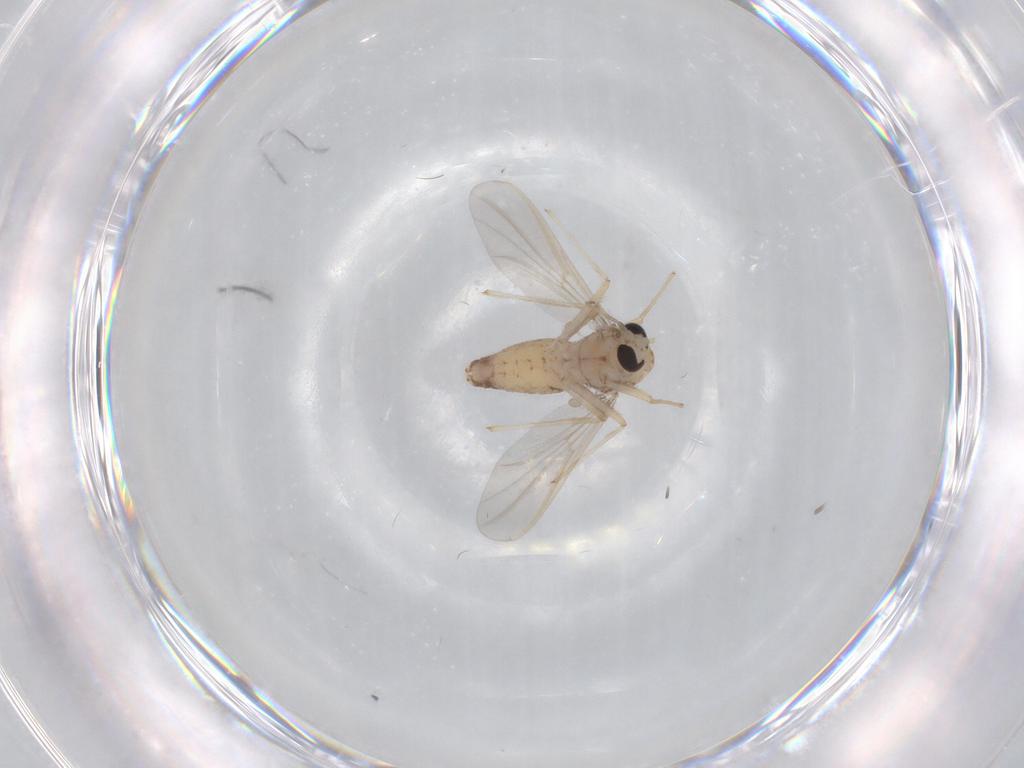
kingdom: Animalia
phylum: Arthropoda
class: Insecta
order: Diptera
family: Chironomidae
